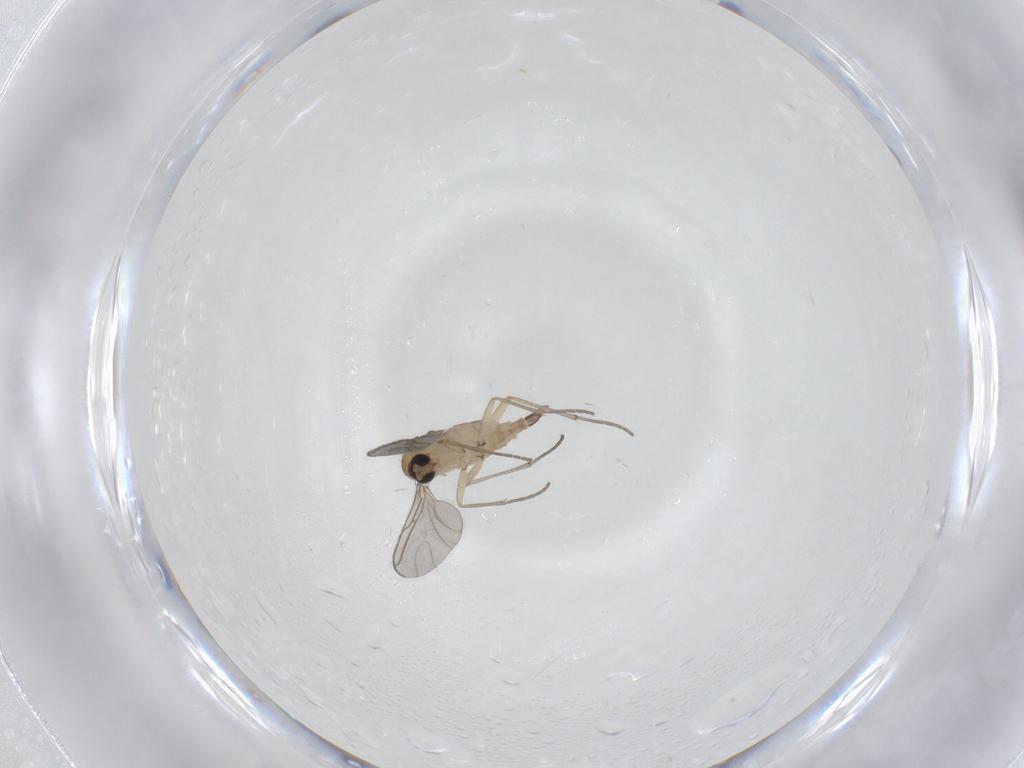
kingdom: Animalia
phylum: Arthropoda
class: Insecta
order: Diptera
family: Sciaridae
